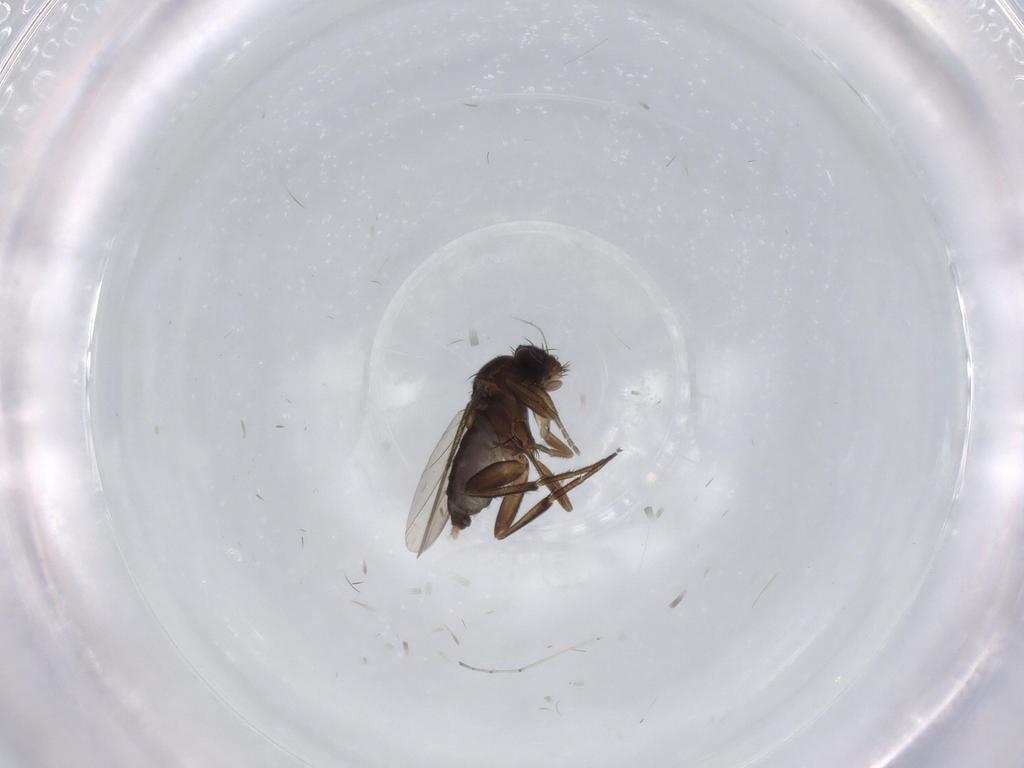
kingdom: Animalia
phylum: Arthropoda
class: Insecta
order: Diptera
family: Phoridae
